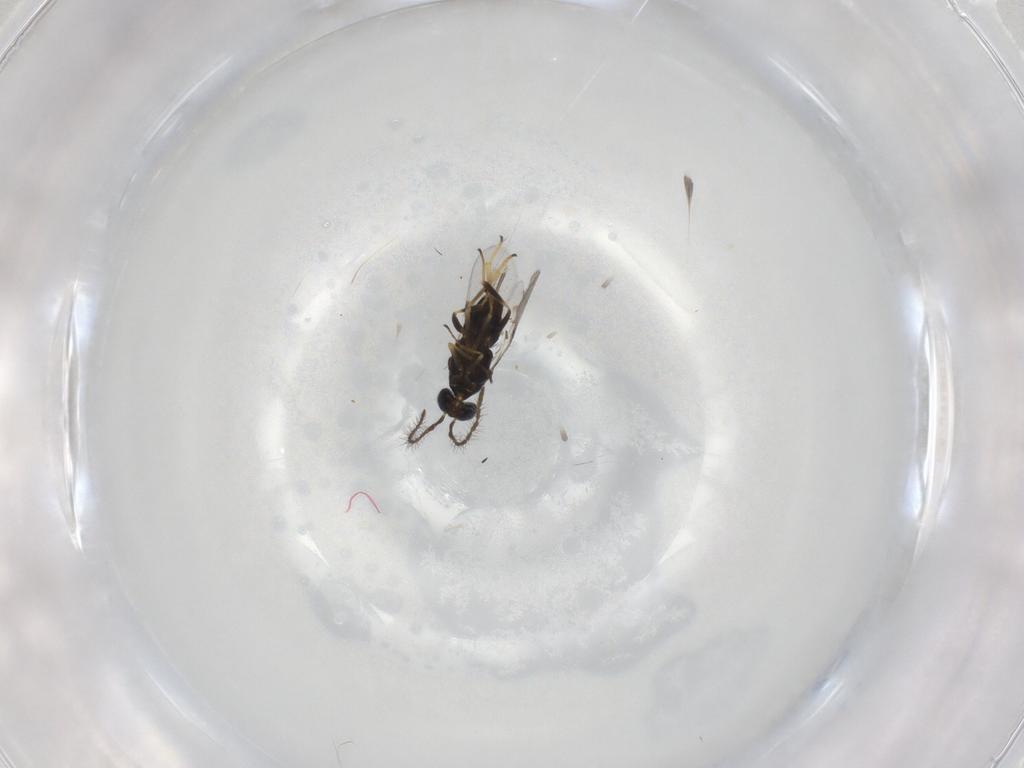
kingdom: Animalia
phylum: Arthropoda
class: Insecta
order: Hymenoptera
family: Encyrtidae
